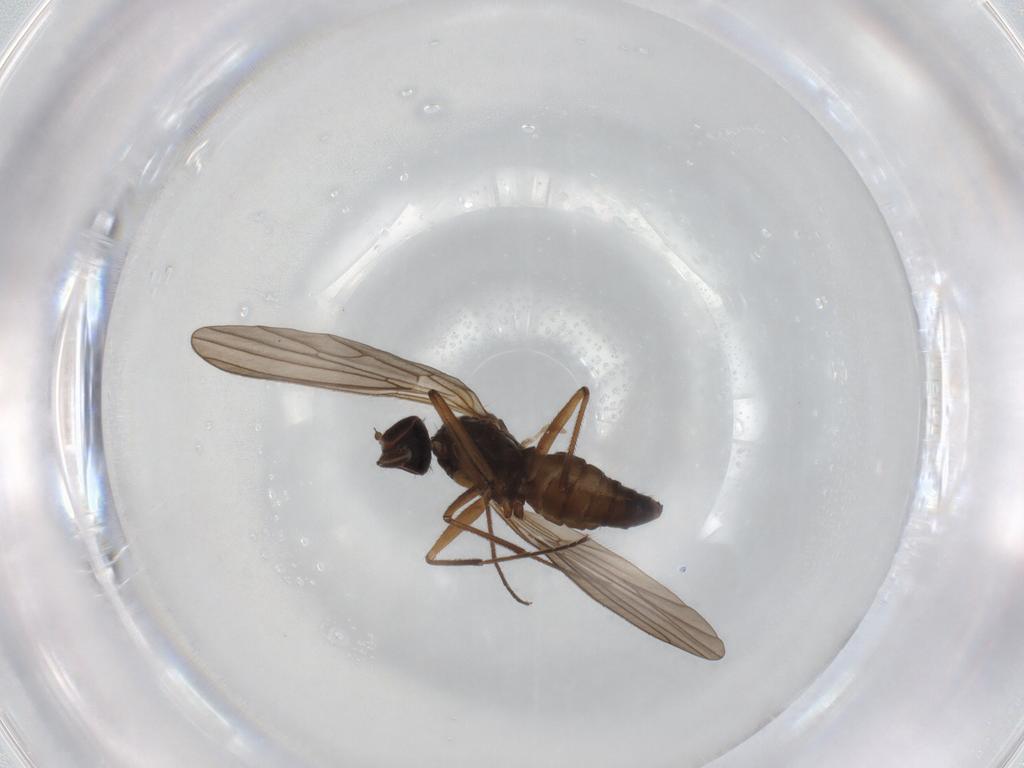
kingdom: Animalia
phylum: Arthropoda
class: Insecta
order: Diptera
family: Brachystomatidae
